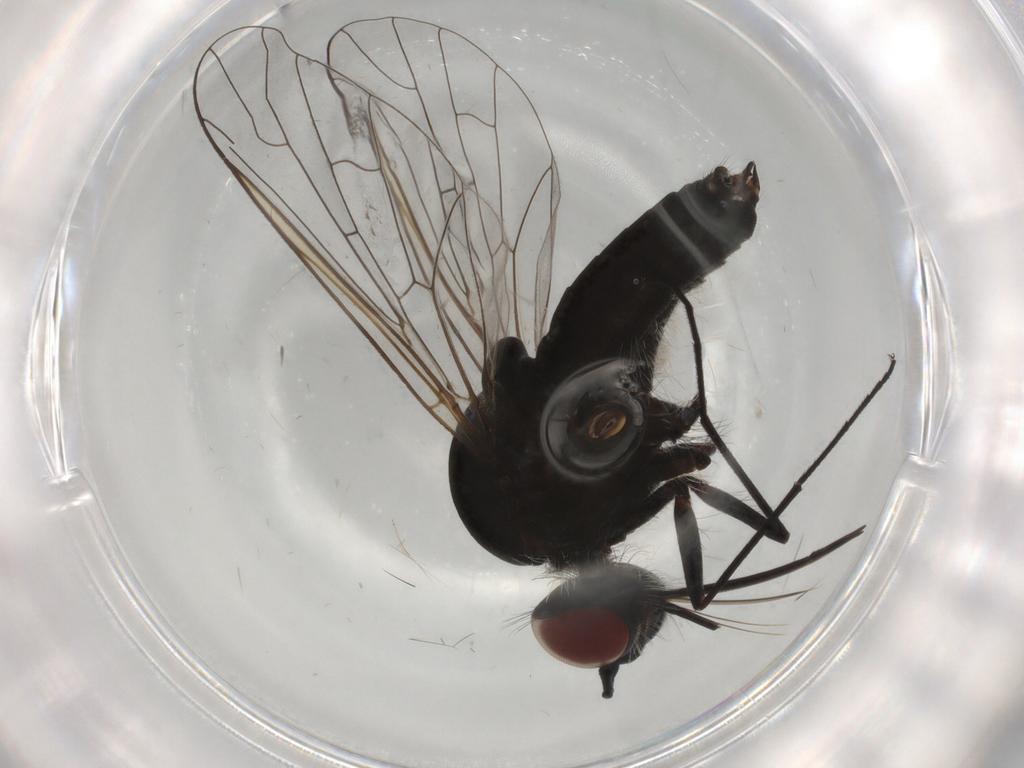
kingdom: Animalia
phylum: Arthropoda
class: Insecta
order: Diptera
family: Bombyliidae
